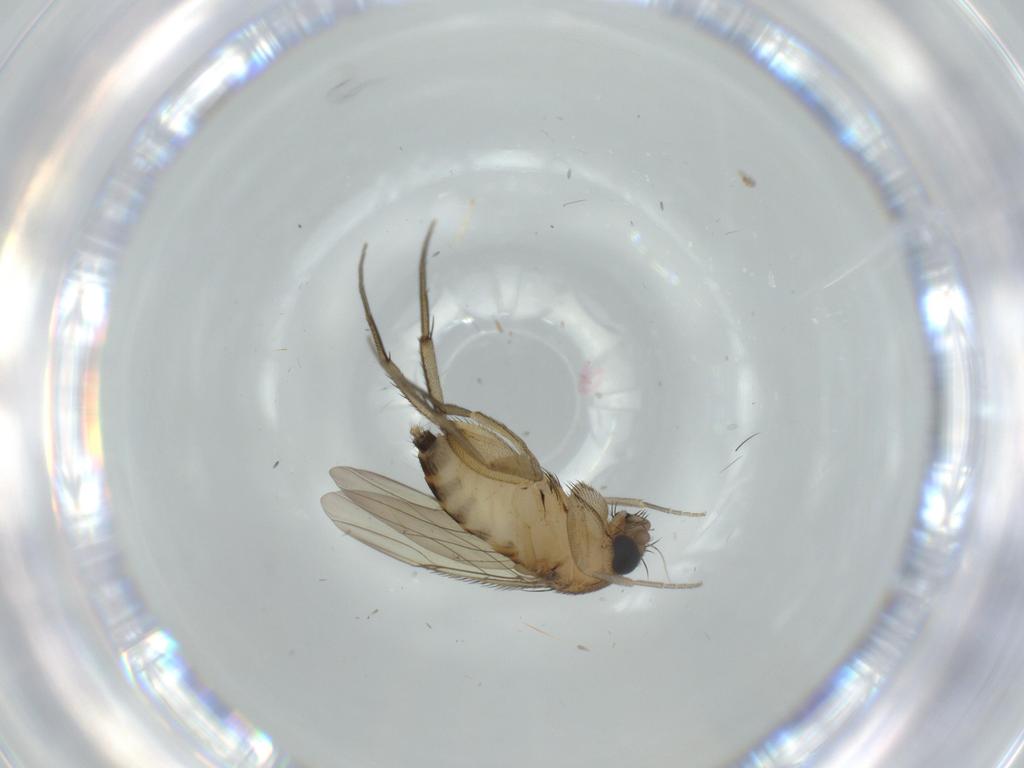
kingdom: Animalia
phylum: Arthropoda
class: Insecta
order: Diptera
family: Phoridae
